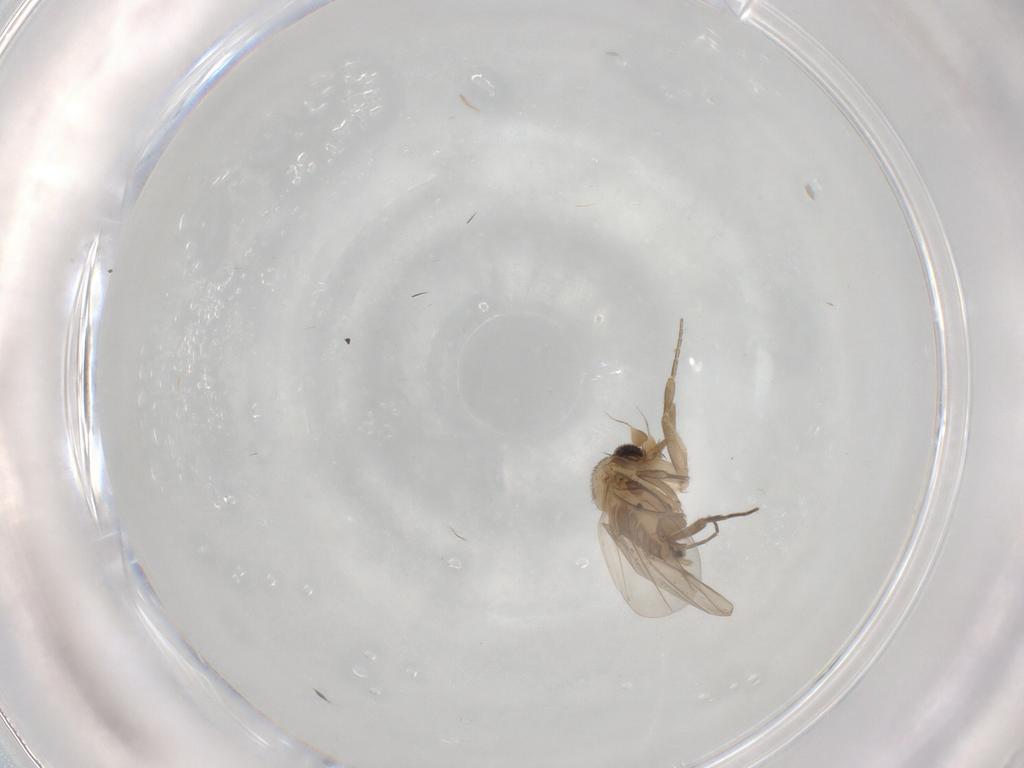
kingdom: Animalia
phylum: Arthropoda
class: Insecta
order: Diptera
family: Phoridae
